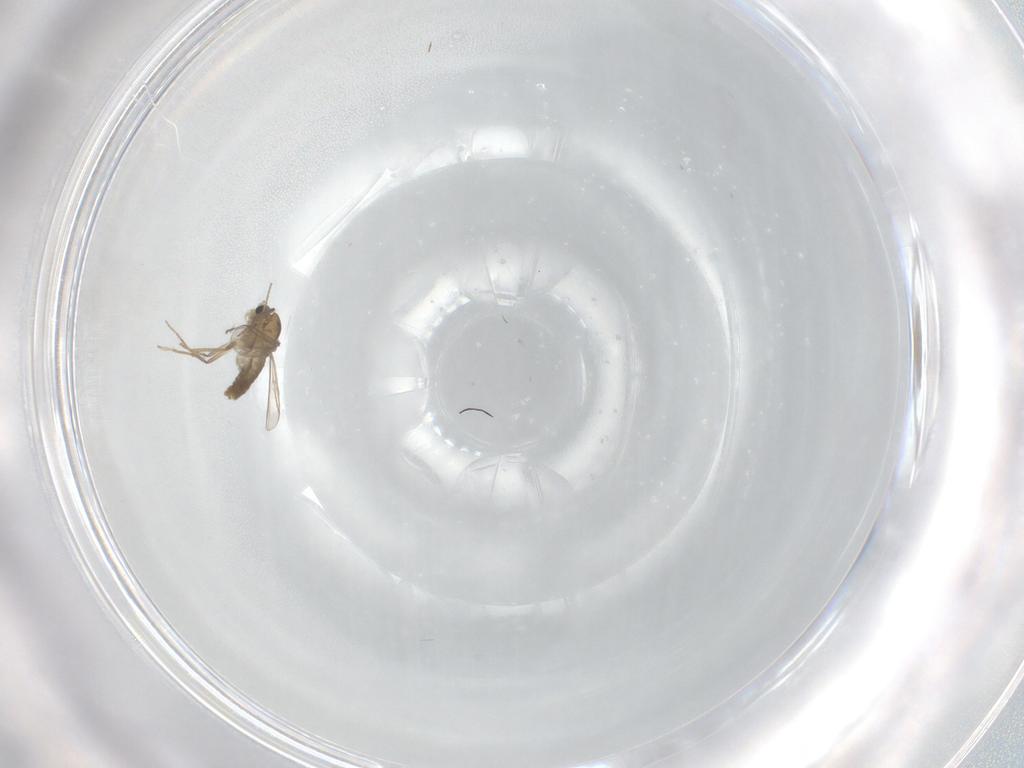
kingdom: Animalia
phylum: Arthropoda
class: Insecta
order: Diptera
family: Chironomidae
